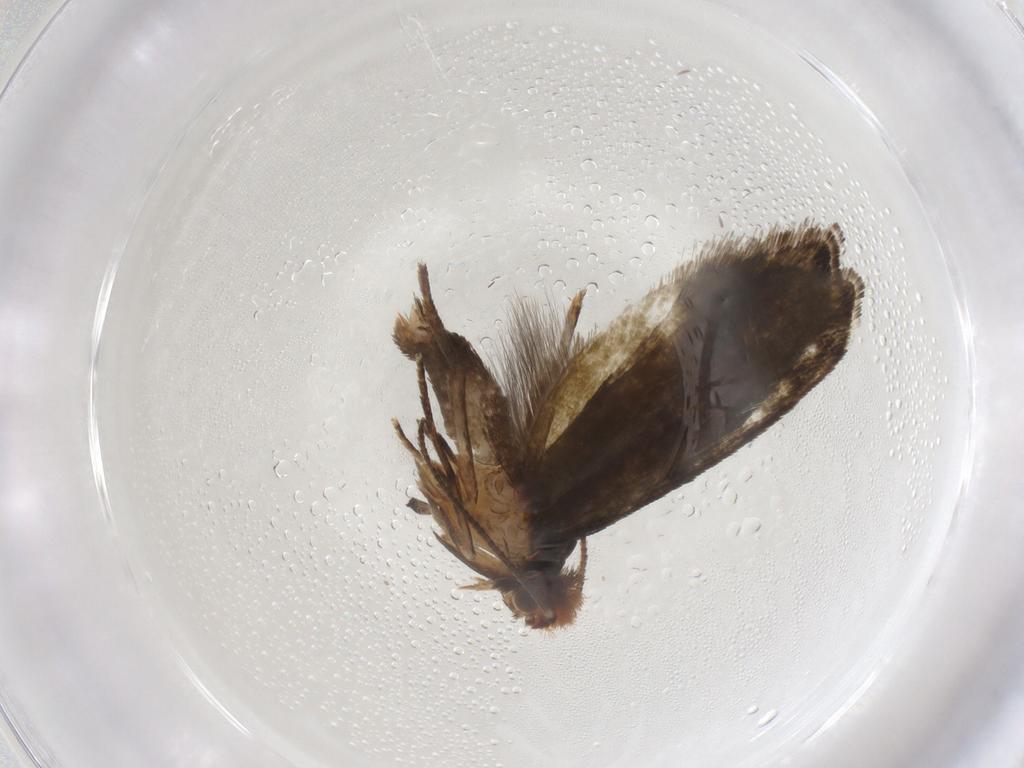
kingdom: Animalia
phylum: Arthropoda
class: Insecta
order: Lepidoptera
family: Tineidae
